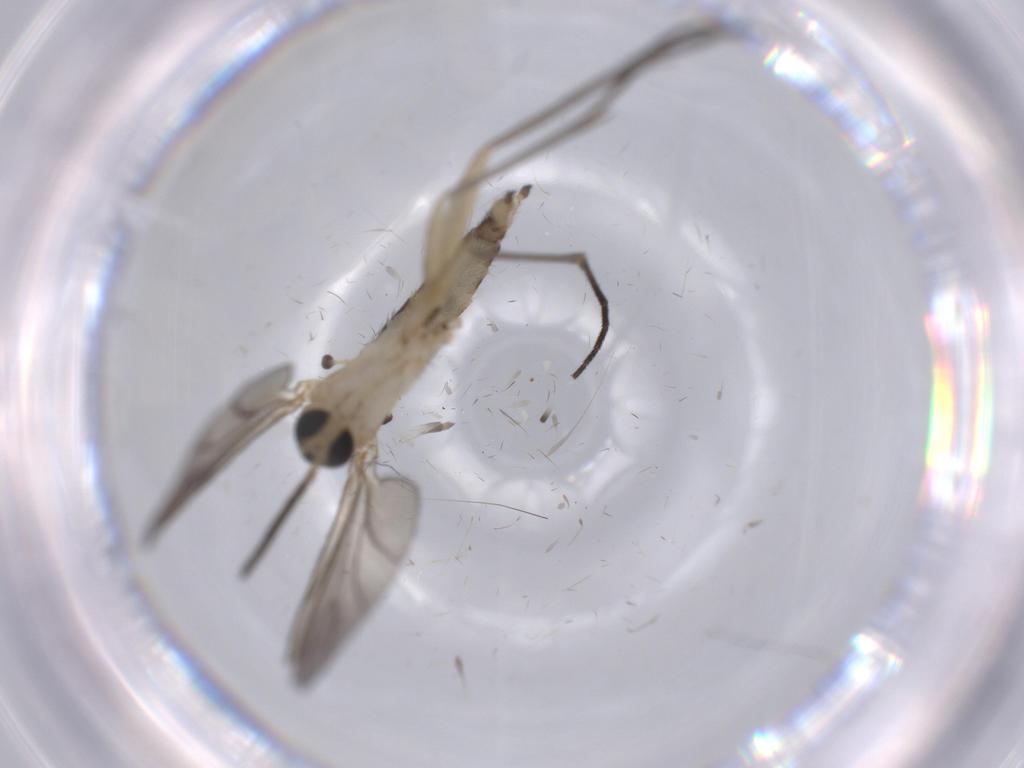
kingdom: Animalia
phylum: Arthropoda
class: Insecta
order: Diptera
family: Sciaridae
